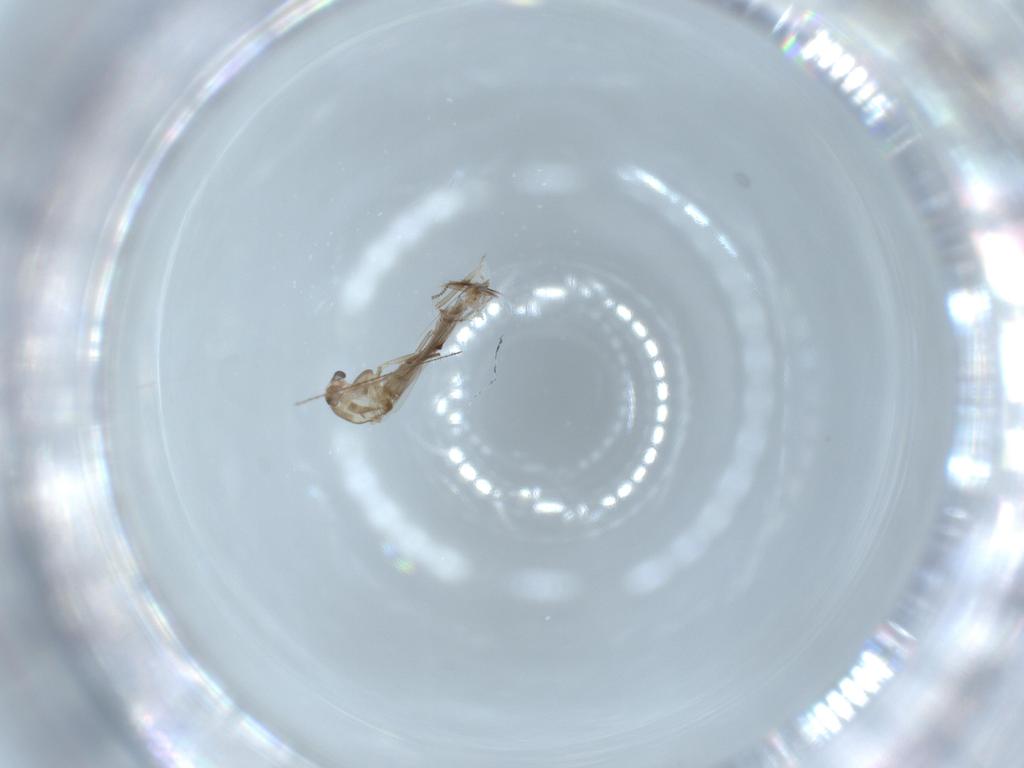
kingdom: Animalia
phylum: Arthropoda
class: Insecta
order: Diptera
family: Chironomidae
